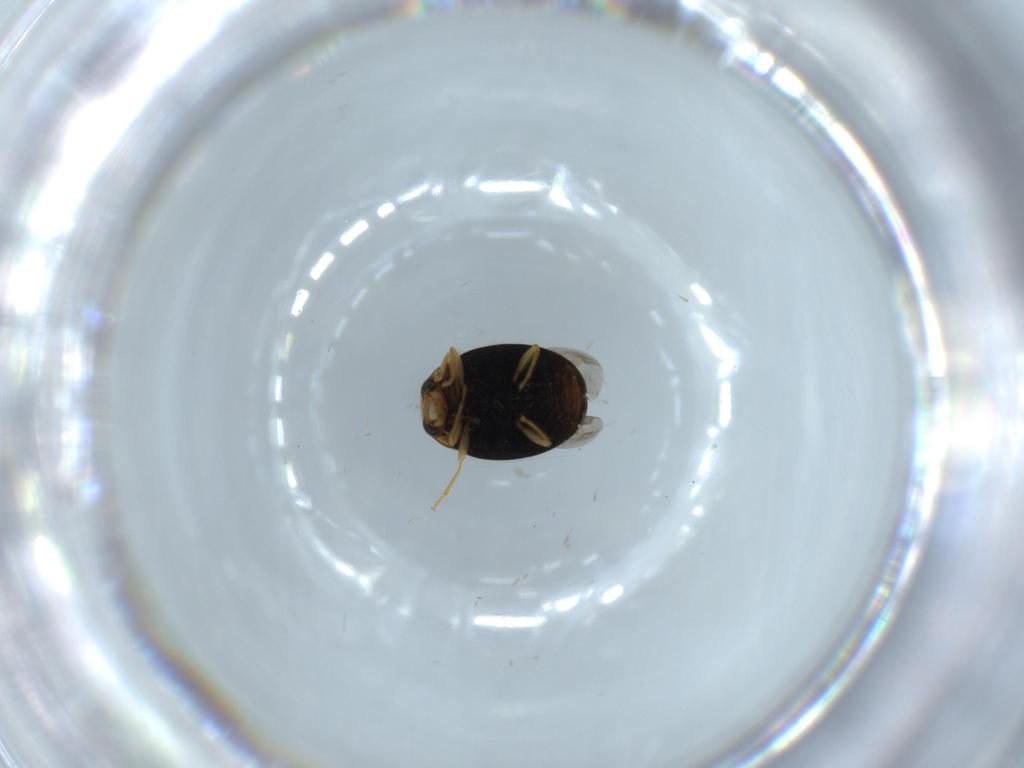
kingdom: Animalia
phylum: Arthropoda
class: Insecta
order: Coleoptera
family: Coccinellidae
